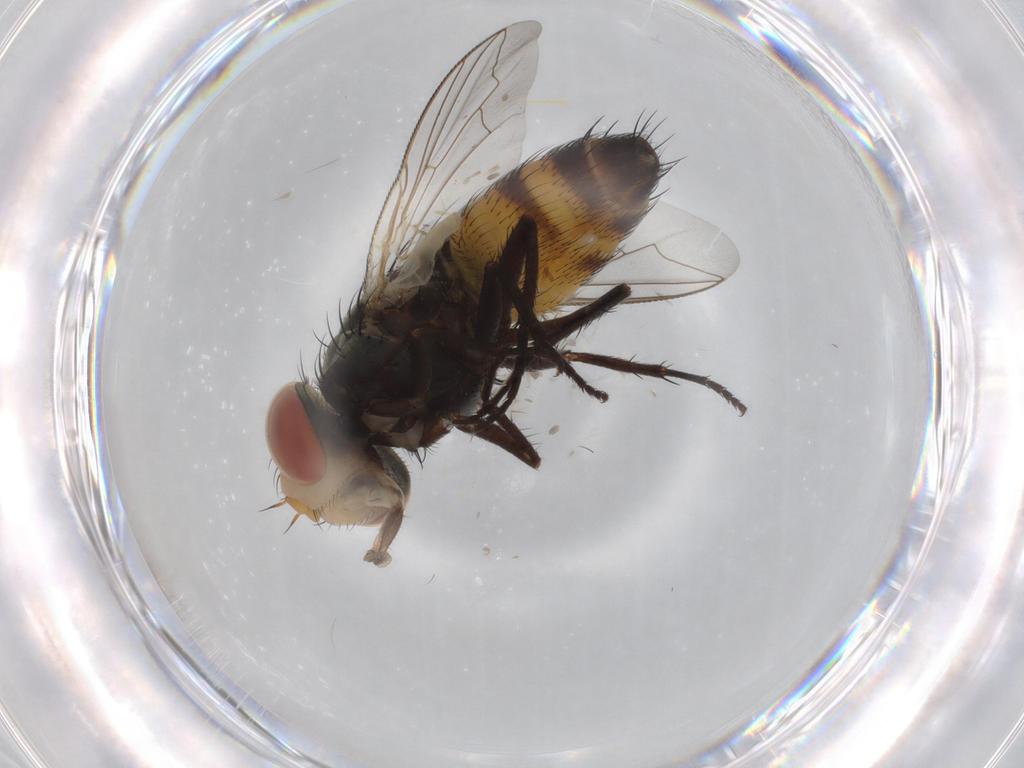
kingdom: Animalia
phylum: Arthropoda
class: Insecta
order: Diptera
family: Sarcophagidae
